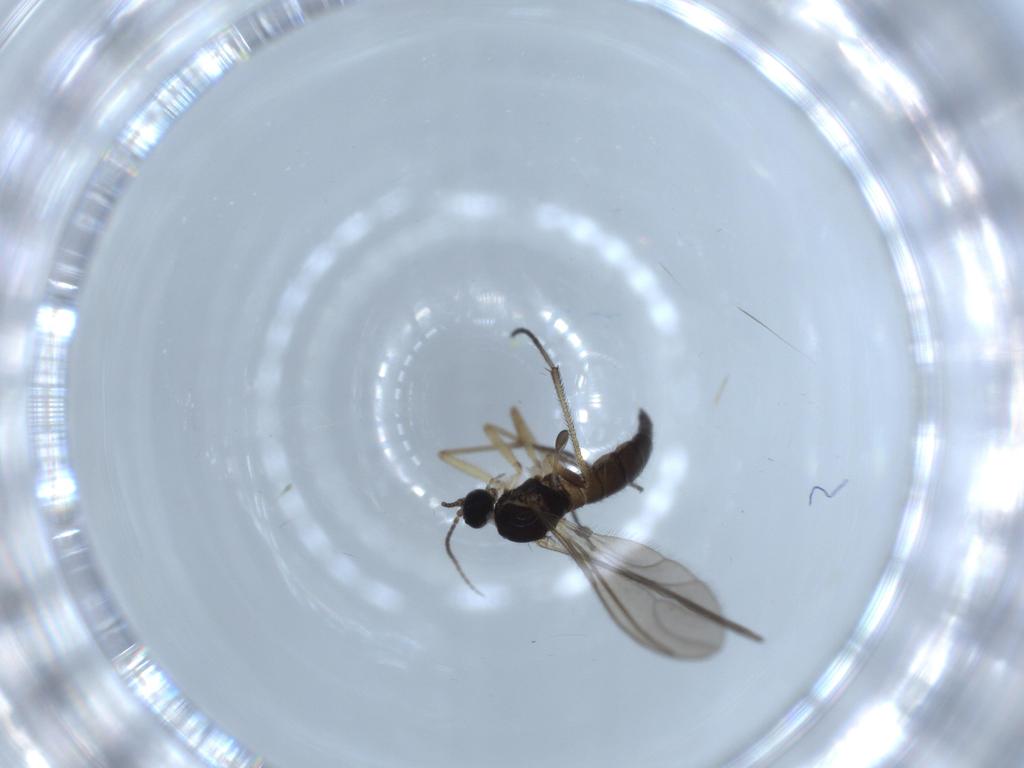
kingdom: Animalia
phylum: Arthropoda
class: Insecta
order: Diptera
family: Sciaridae
